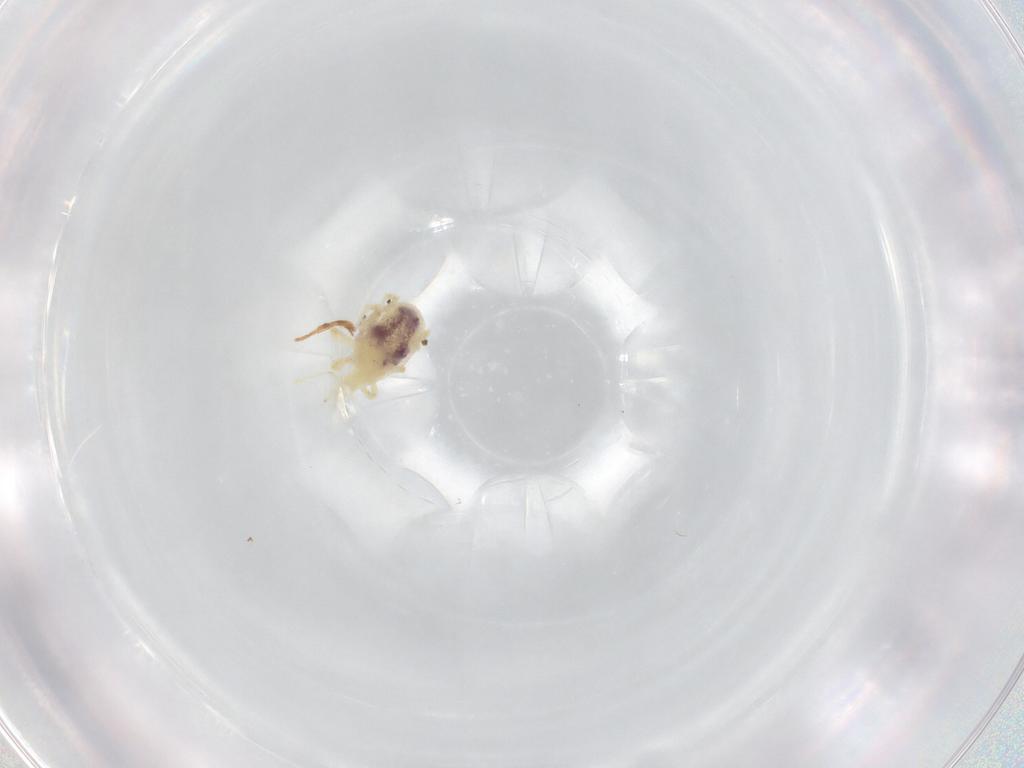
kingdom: Animalia
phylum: Arthropoda
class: Arachnida
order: Trombidiformes
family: Bdellidae
